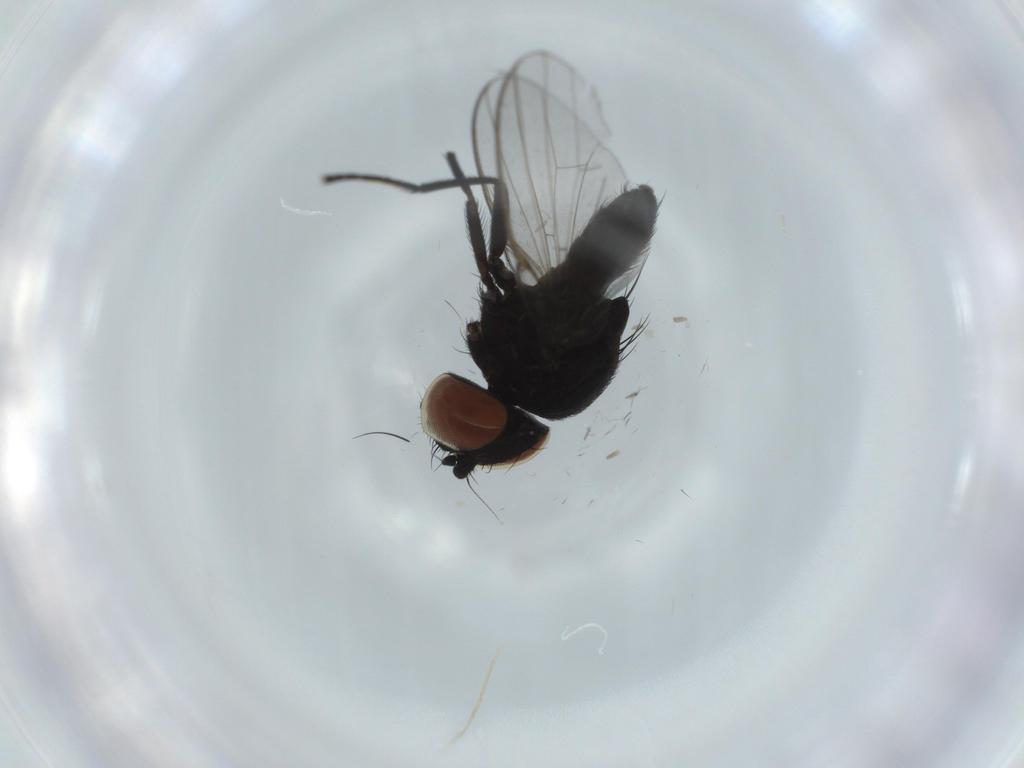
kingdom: Animalia
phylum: Arthropoda
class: Insecta
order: Diptera
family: Milichiidae
